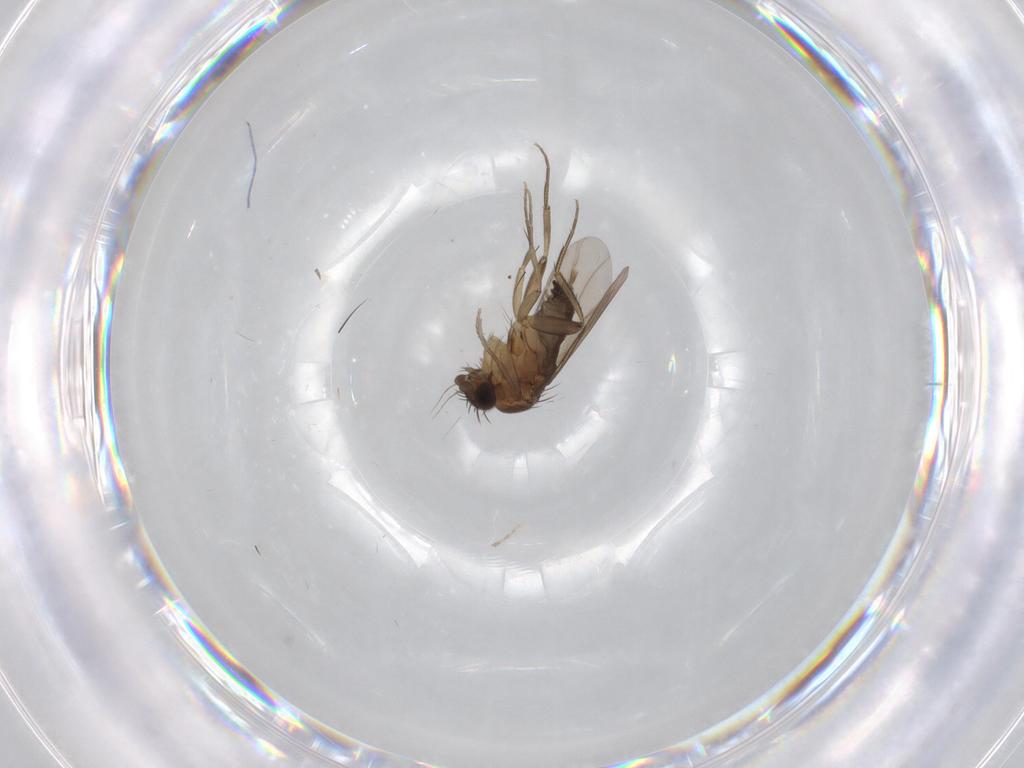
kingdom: Animalia
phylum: Arthropoda
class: Insecta
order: Diptera
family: Phoridae
